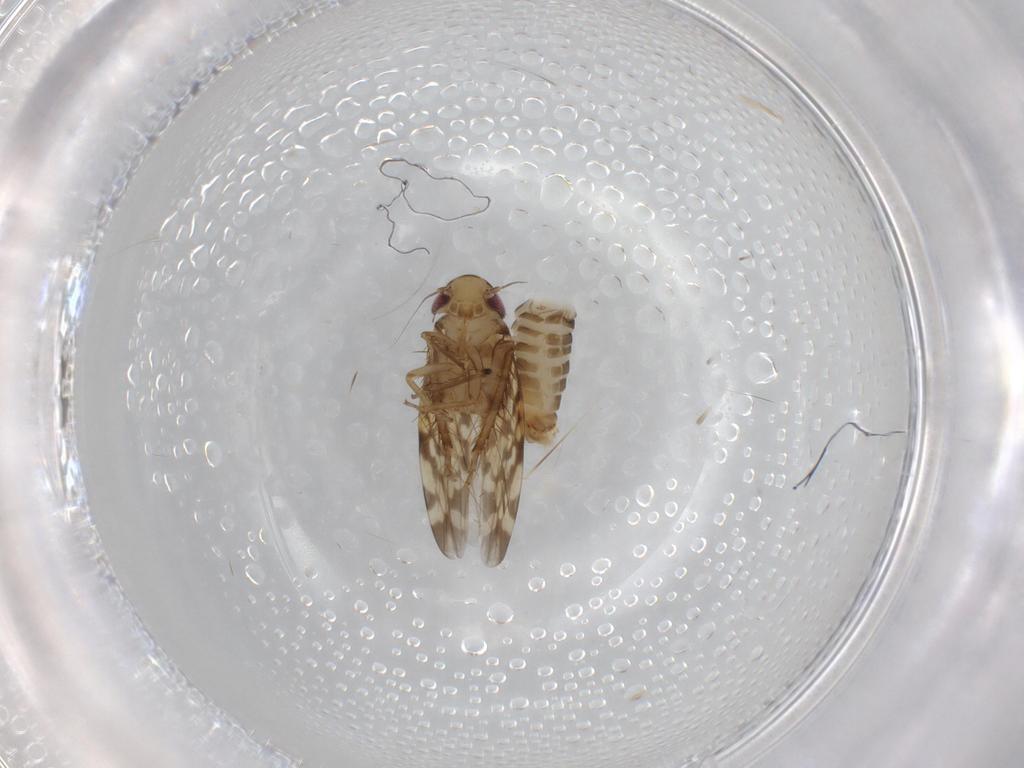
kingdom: Animalia
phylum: Arthropoda
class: Insecta
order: Hemiptera
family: Cicadellidae
